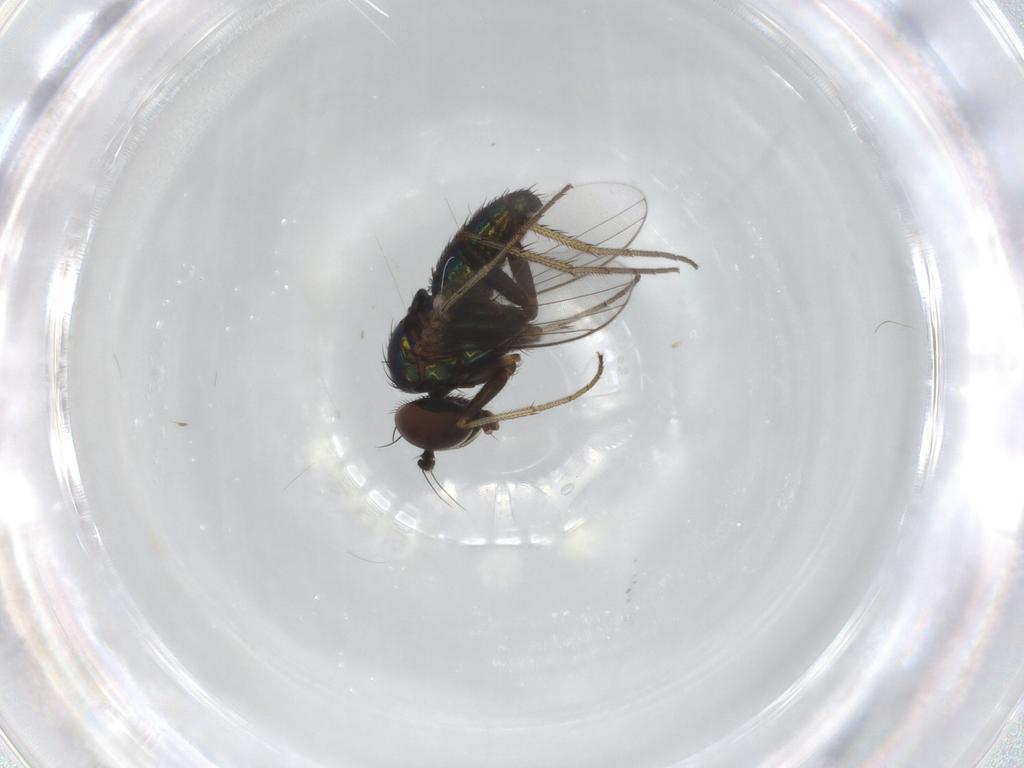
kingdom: Animalia
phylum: Arthropoda
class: Insecta
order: Diptera
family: Dolichopodidae
